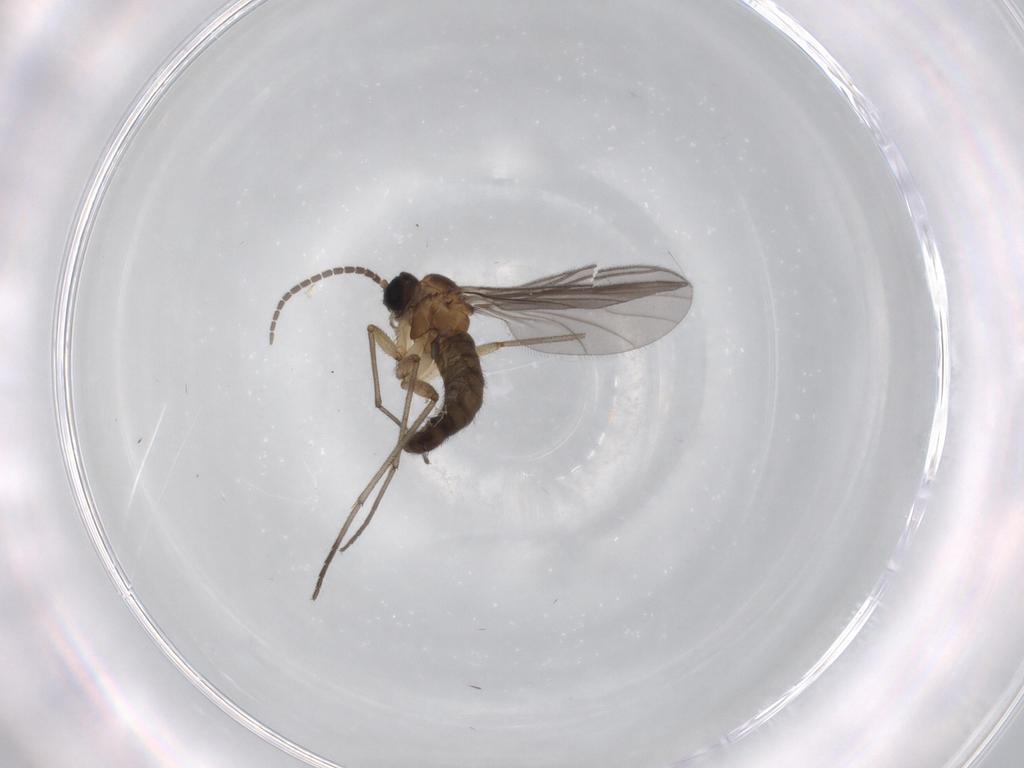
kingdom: Animalia
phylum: Arthropoda
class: Insecta
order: Diptera
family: Sciaridae
